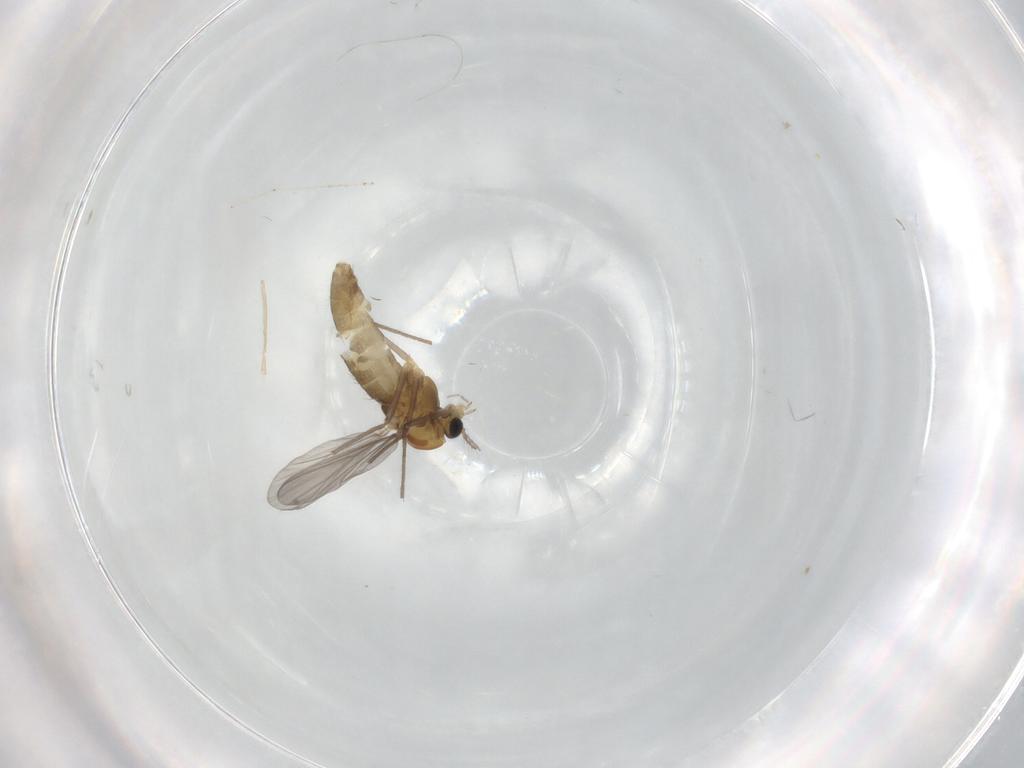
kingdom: Animalia
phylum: Arthropoda
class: Insecta
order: Diptera
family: Chironomidae
